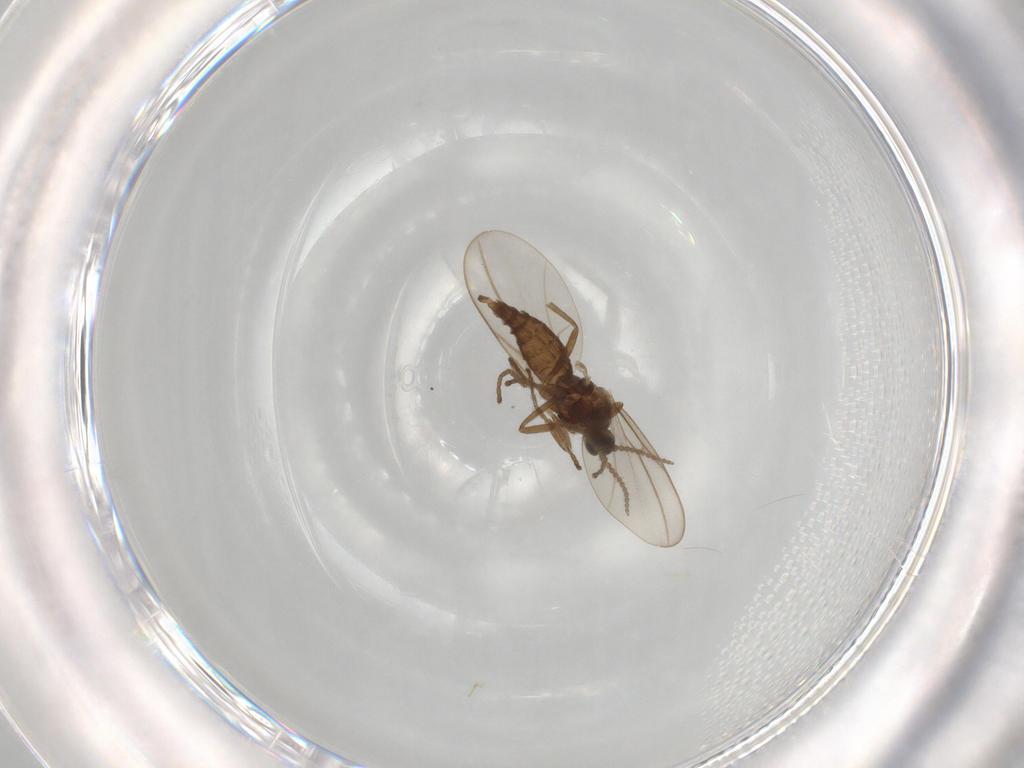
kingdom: Animalia
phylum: Arthropoda
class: Insecta
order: Diptera
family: Cecidomyiidae
